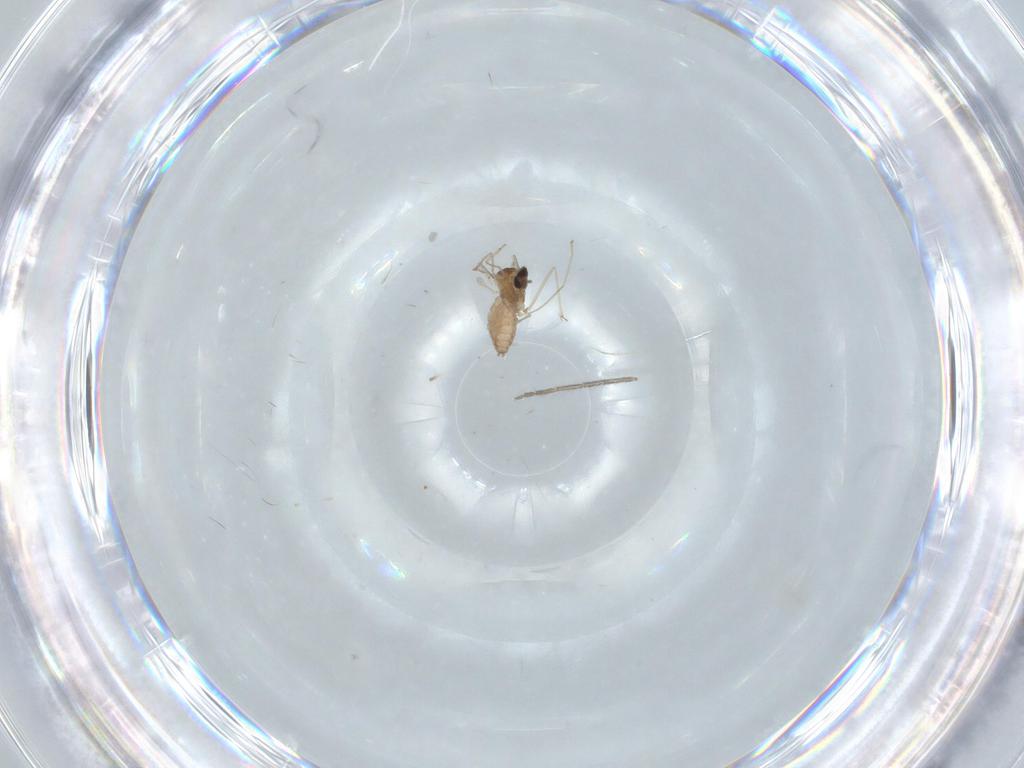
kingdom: Animalia
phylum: Arthropoda
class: Insecta
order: Diptera
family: Cecidomyiidae
